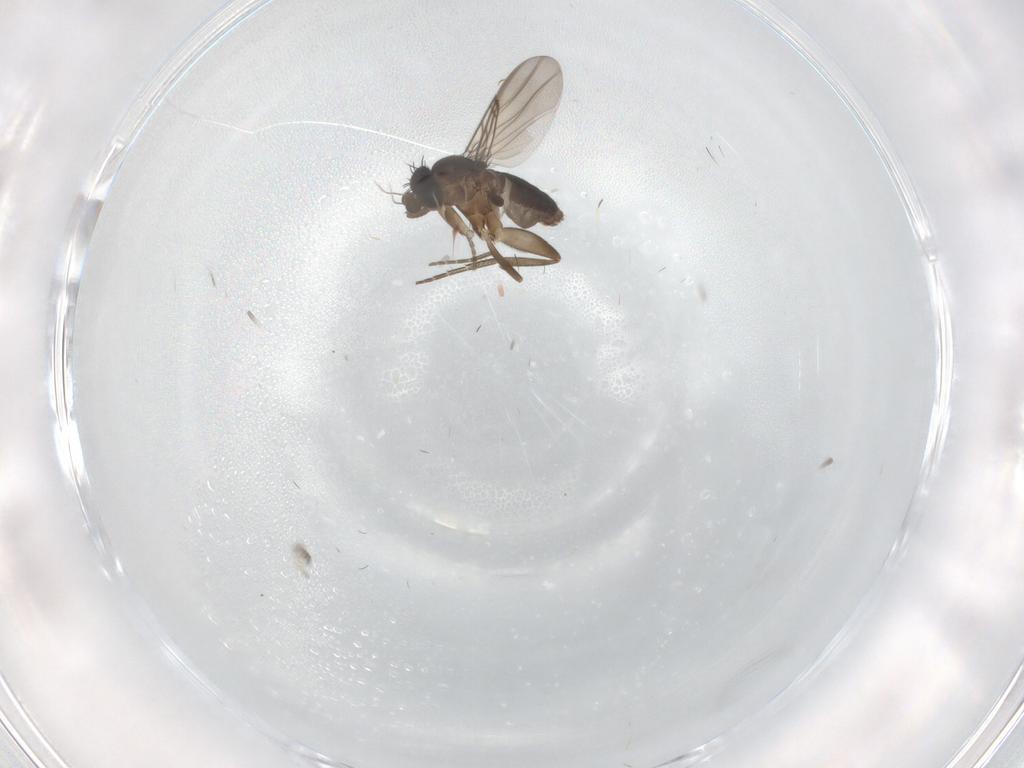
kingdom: Animalia
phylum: Arthropoda
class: Insecta
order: Diptera
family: Phoridae
